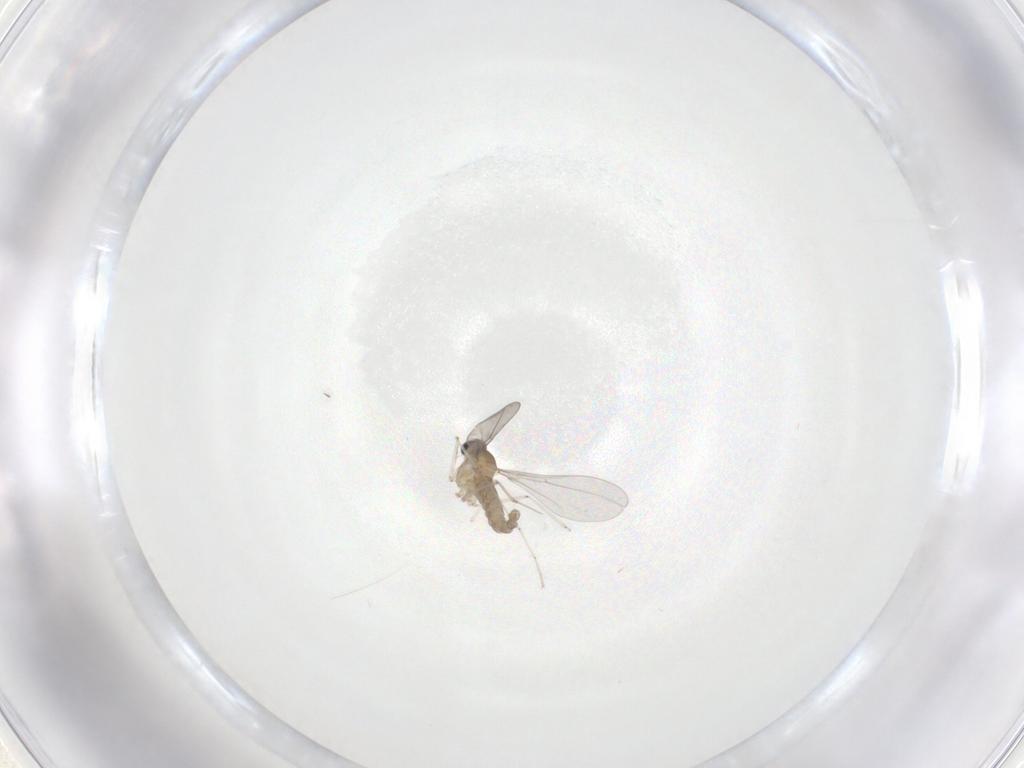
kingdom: Animalia
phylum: Arthropoda
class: Insecta
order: Diptera
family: Cecidomyiidae
